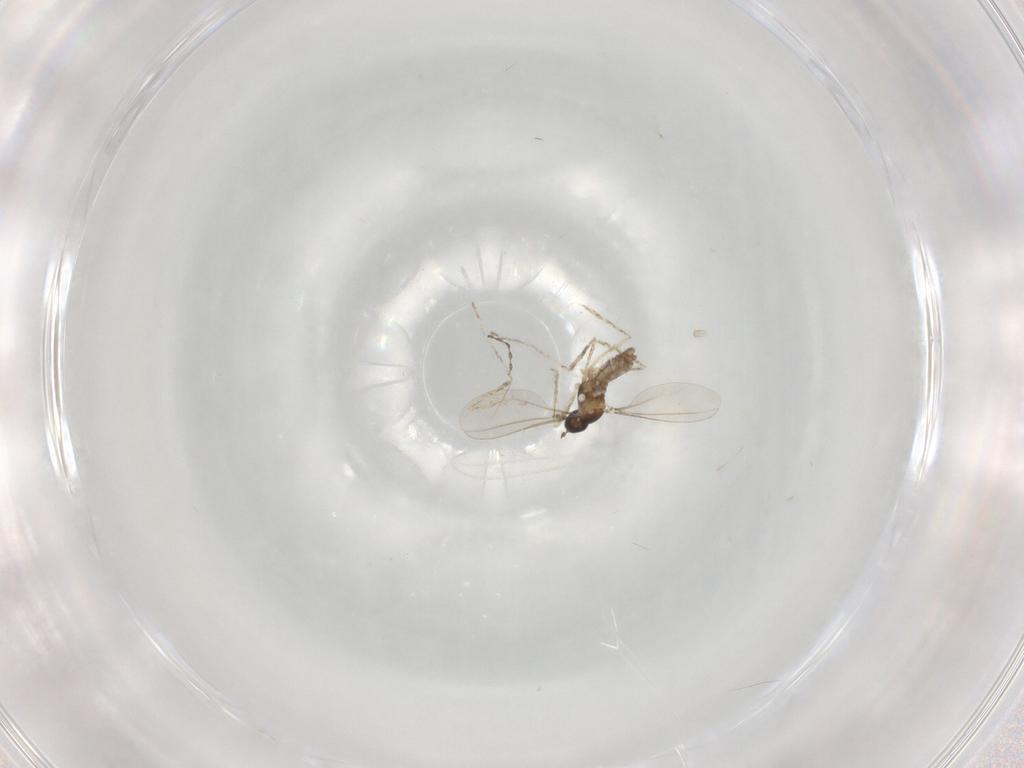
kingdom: Animalia
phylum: Arthropoda
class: Insecta
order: Diptera
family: Cecidomyiidae
